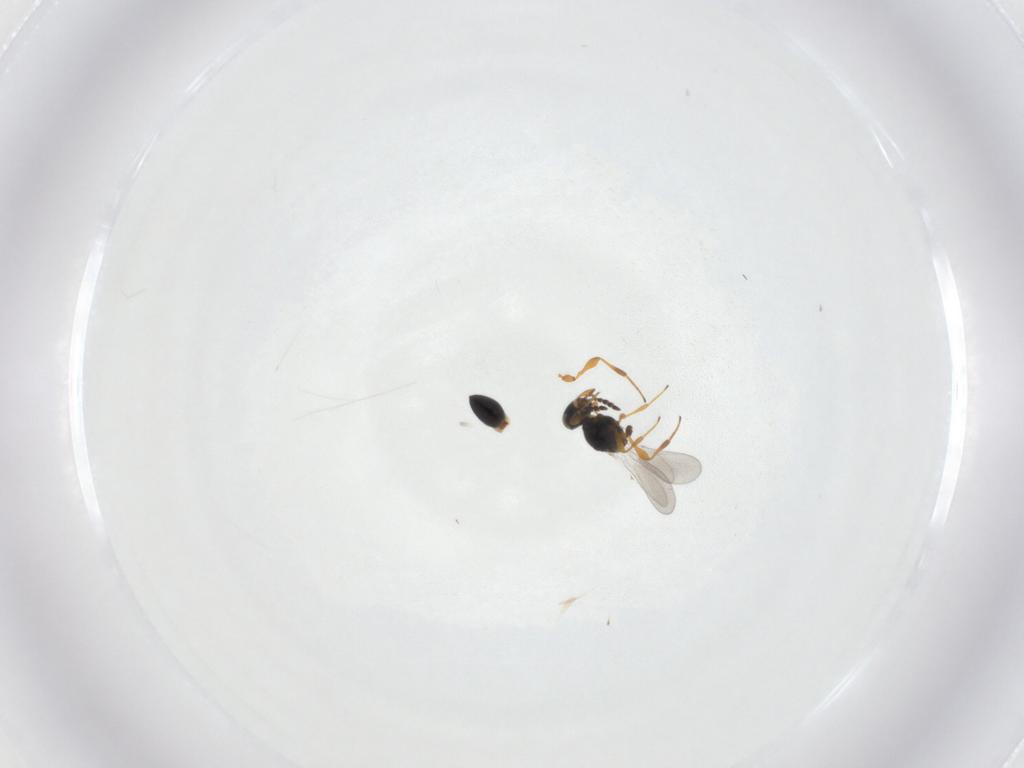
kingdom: Animalia
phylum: Arthropoda
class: Insecta
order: Hymenoptera
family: Platygastridae
